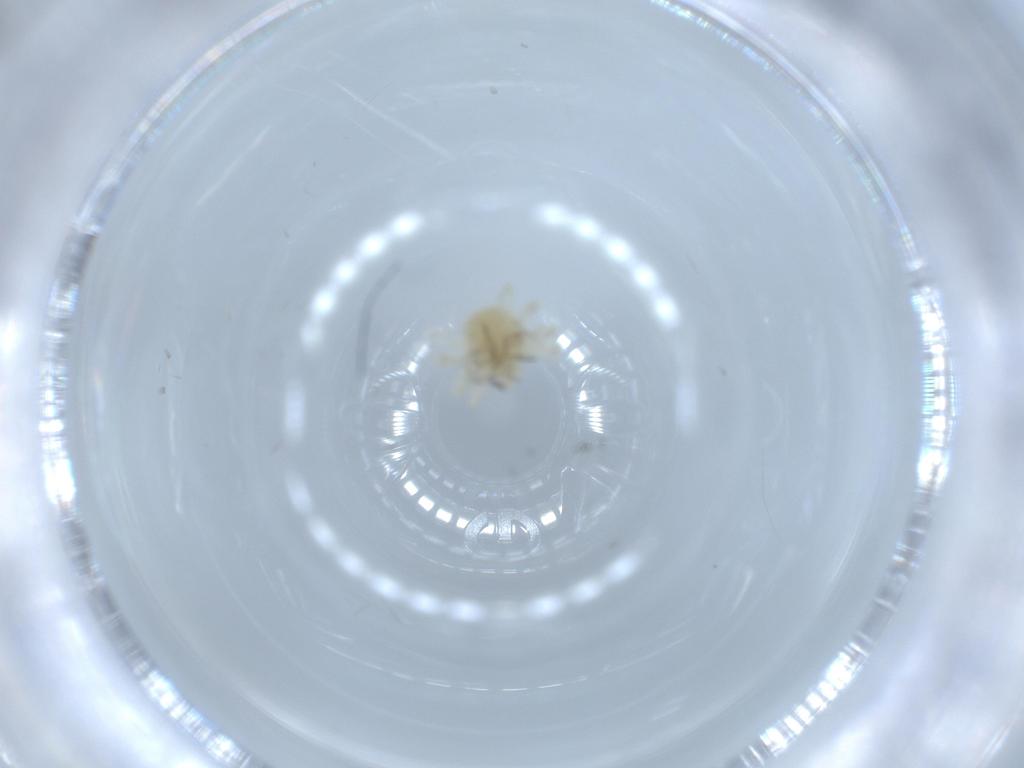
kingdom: Animalia
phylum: Arthropoda
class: Arachnida
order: Trombidiformes
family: Anystidae
